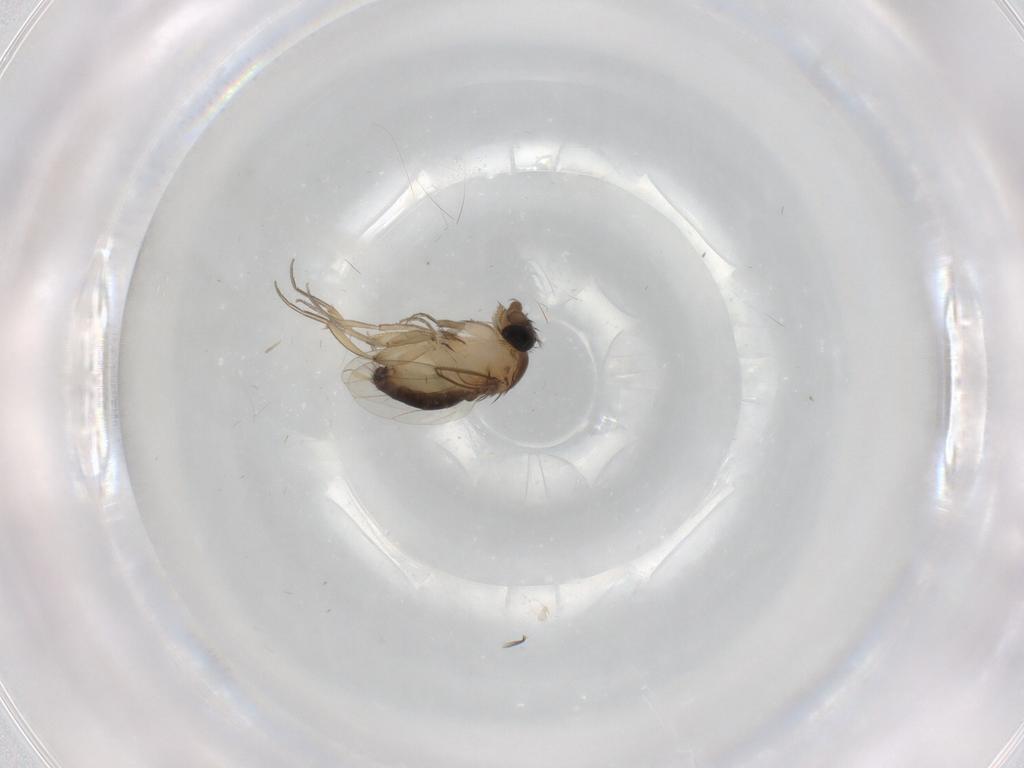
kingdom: Animalia
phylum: Arthropoda
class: Insecta
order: Diptera
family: Phoridae
